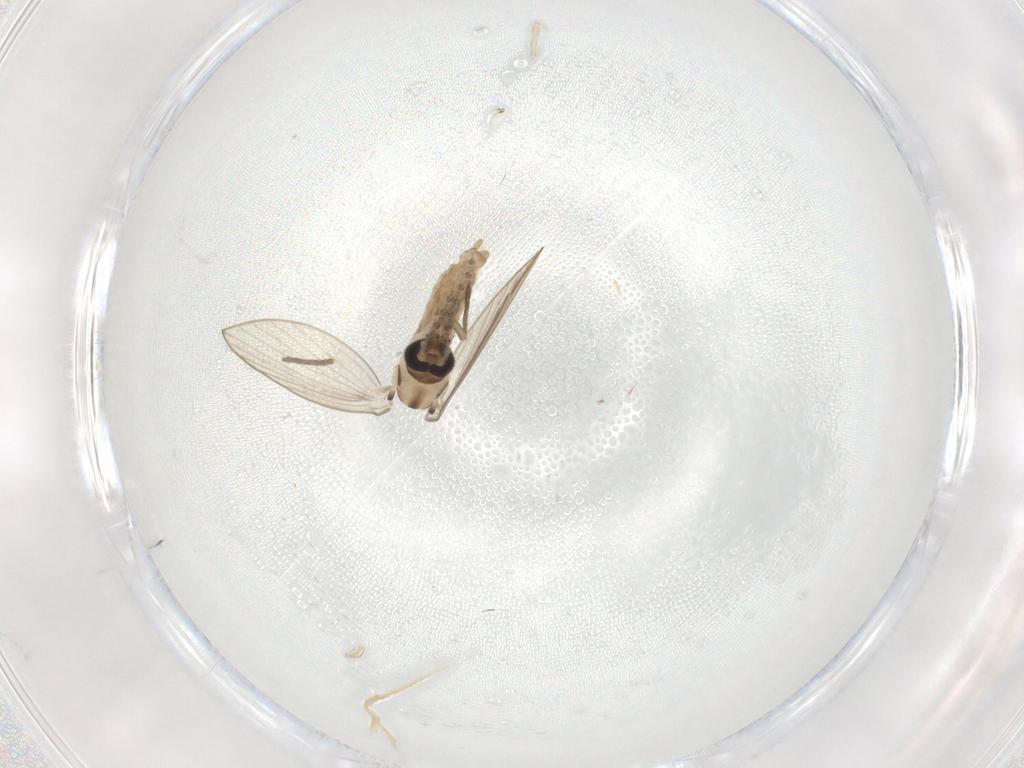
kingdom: Animalia
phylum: Arthropoda
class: Insecta
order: Diptera
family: Psychodidae
